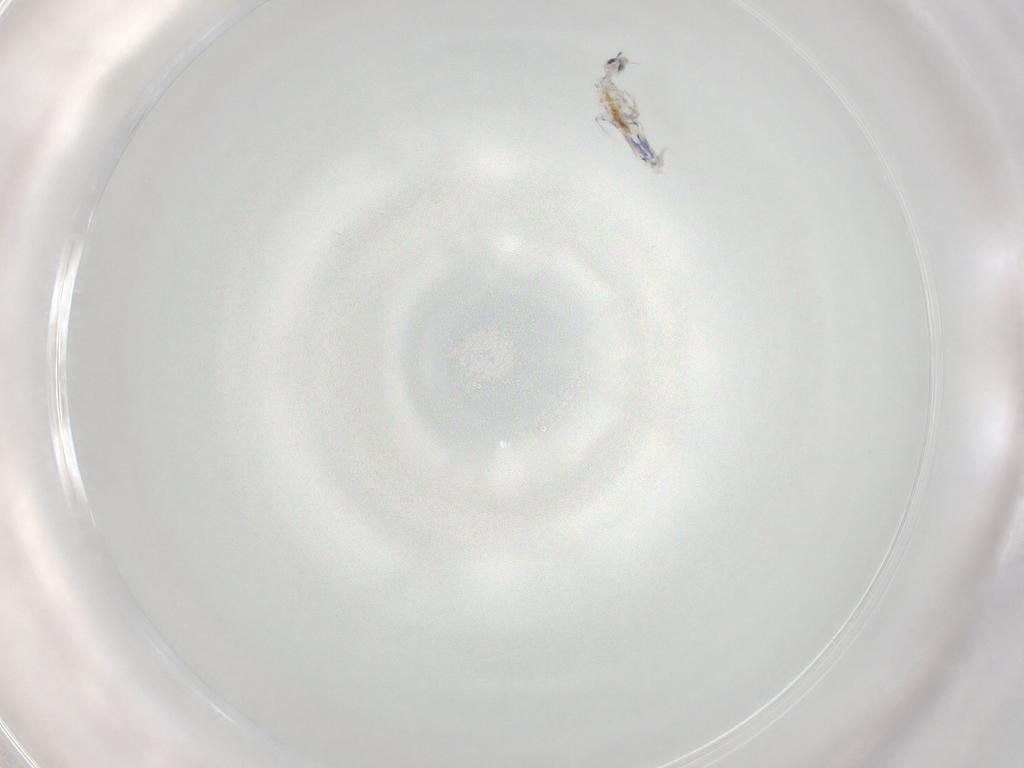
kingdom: Animalia
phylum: Arthropoda
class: Collembola
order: Entomobryomorpha
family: Entomobryidae
